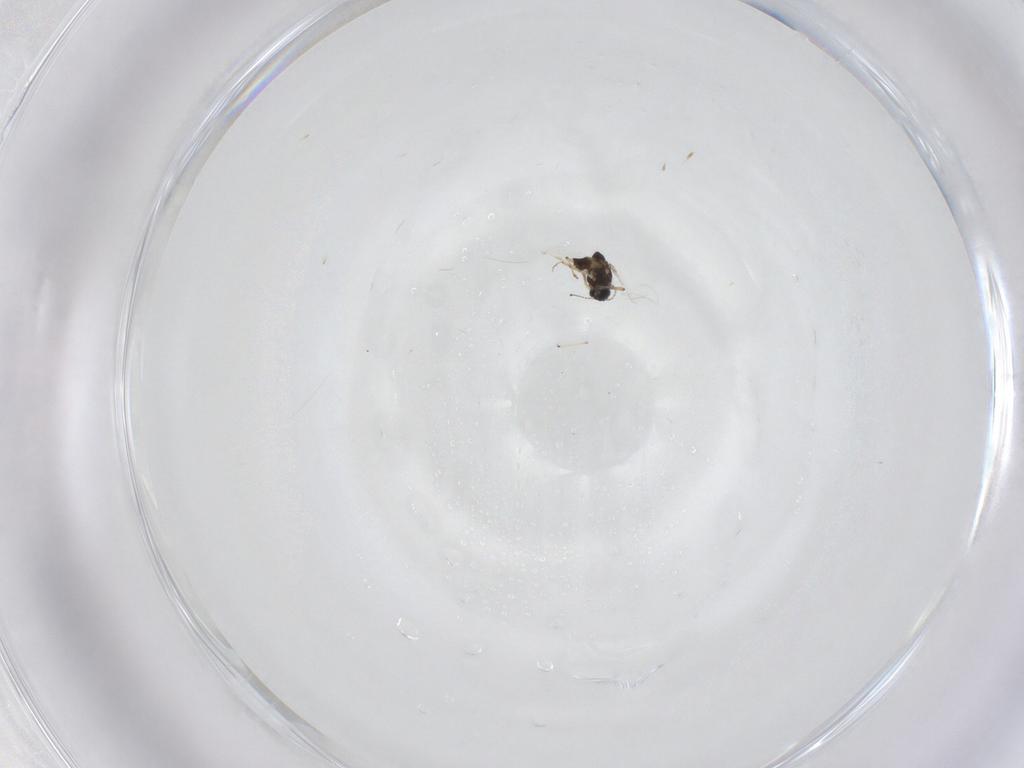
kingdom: Animalia
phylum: Arthropoda
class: Insecta
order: Diptera
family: Chironomidae
